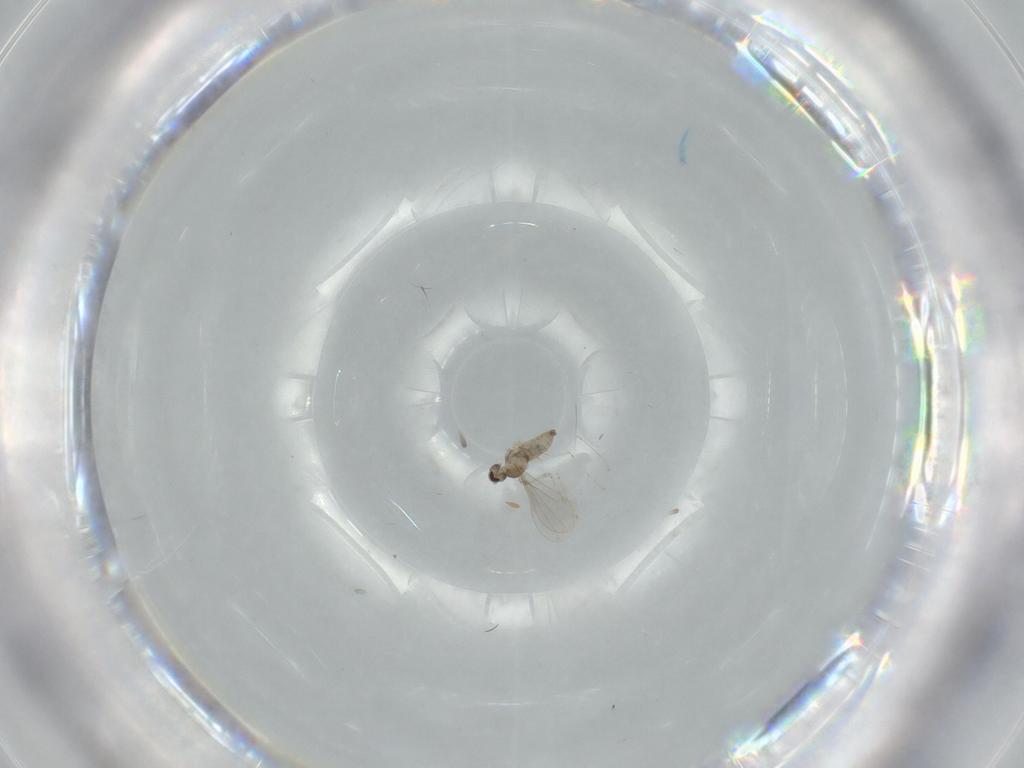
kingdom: Animalia
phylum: Arthropoda
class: Insecta
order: Diptera
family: Cecidomyiidae
